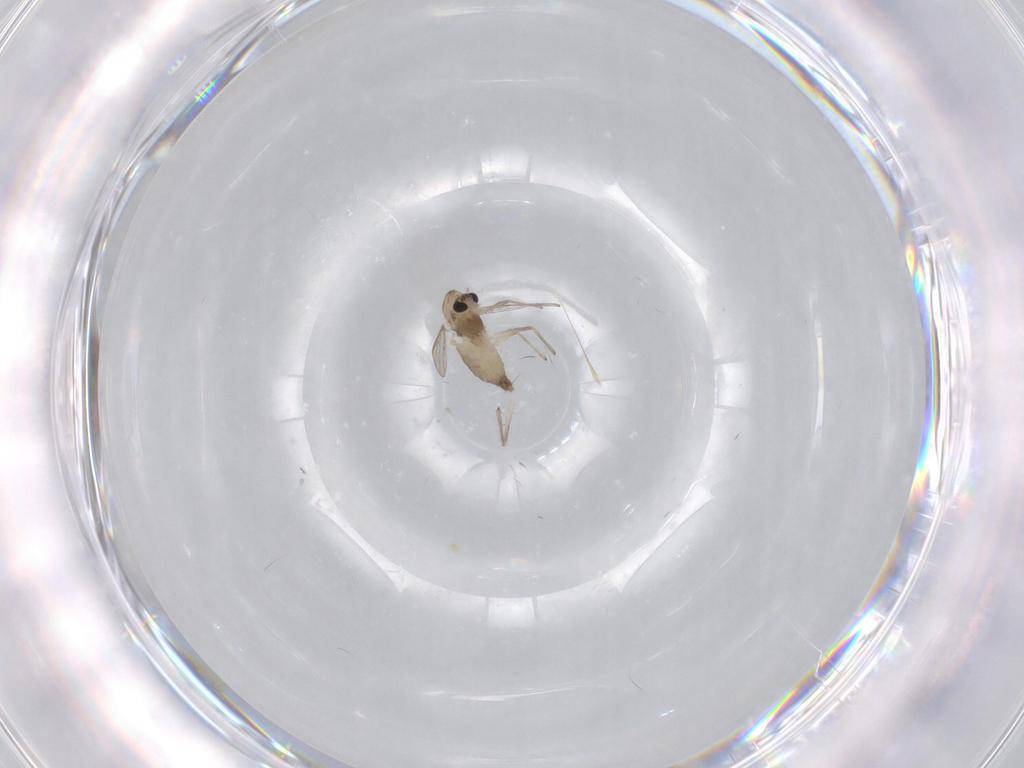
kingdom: Animalia
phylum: Arthropoda
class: Insecta
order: Diptera
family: Chironomidae
